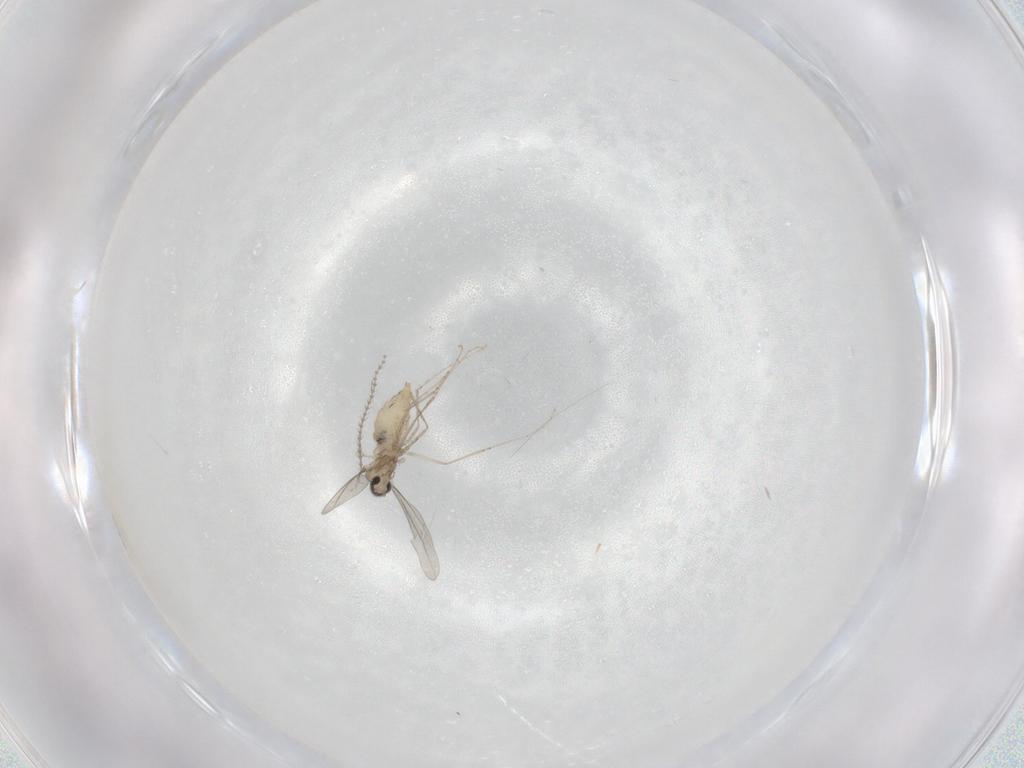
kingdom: Animalia
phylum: Arthropoda
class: Insecta
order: Diptera
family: Cecidomyiidae
